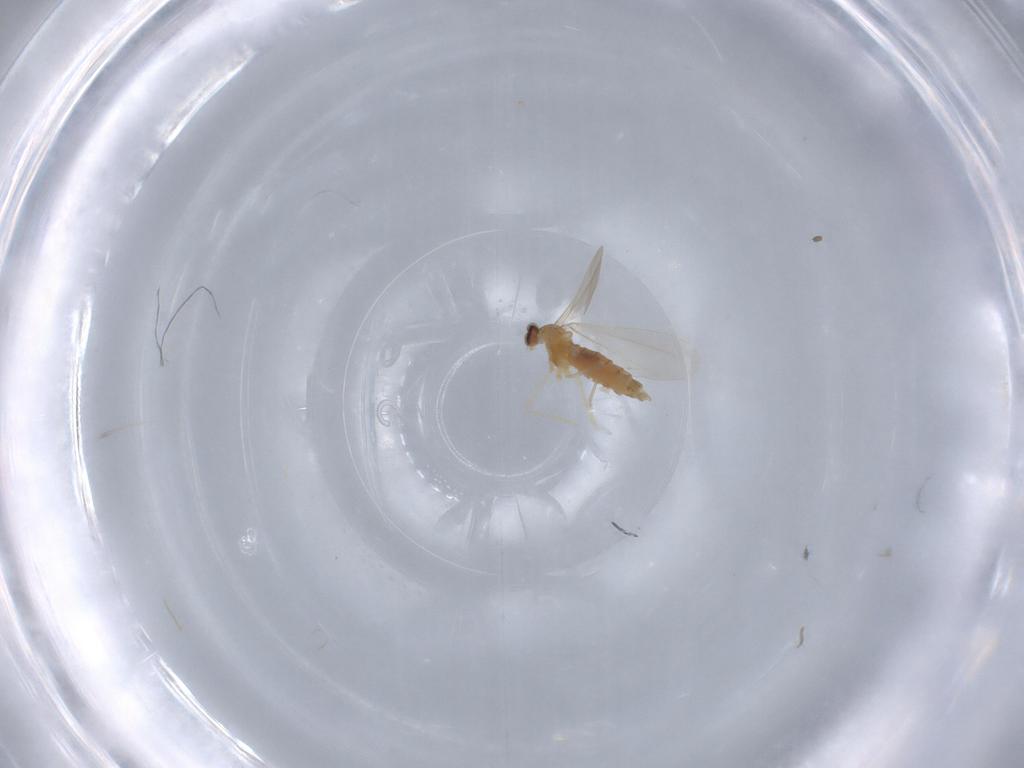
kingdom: Animalia
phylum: Arthropoda
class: Insecta
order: Diptera
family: Cecidomyiidae
